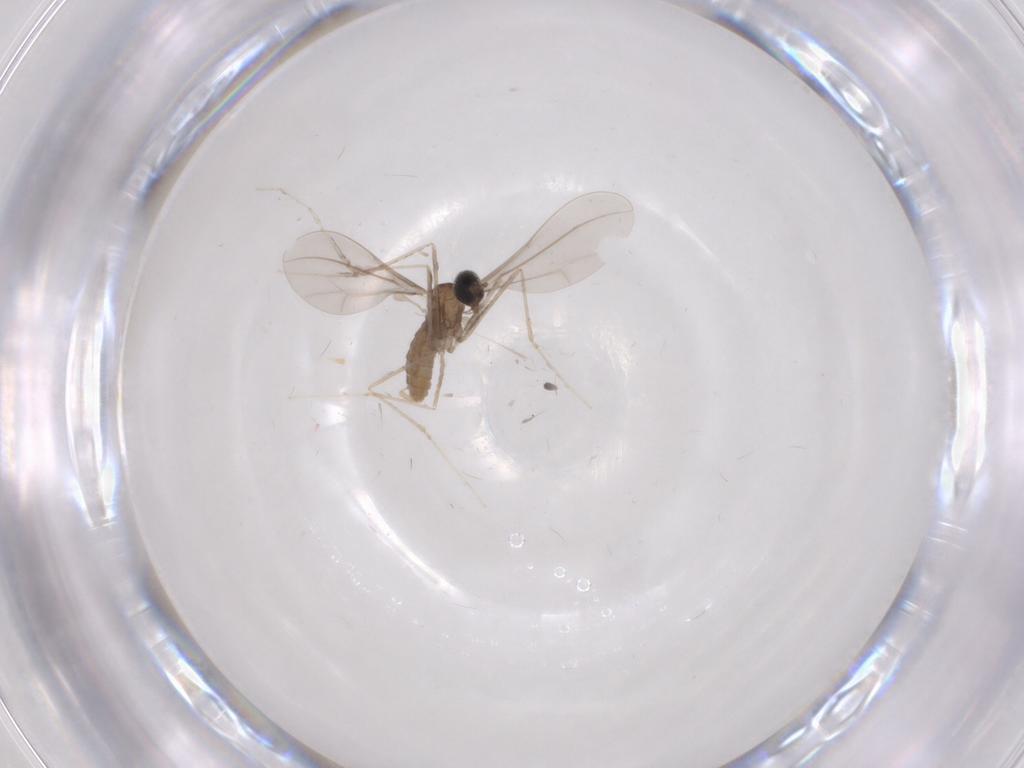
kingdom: Animalia
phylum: Arthropoda
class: Insecta
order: Diptera
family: Cecidomyiidae
